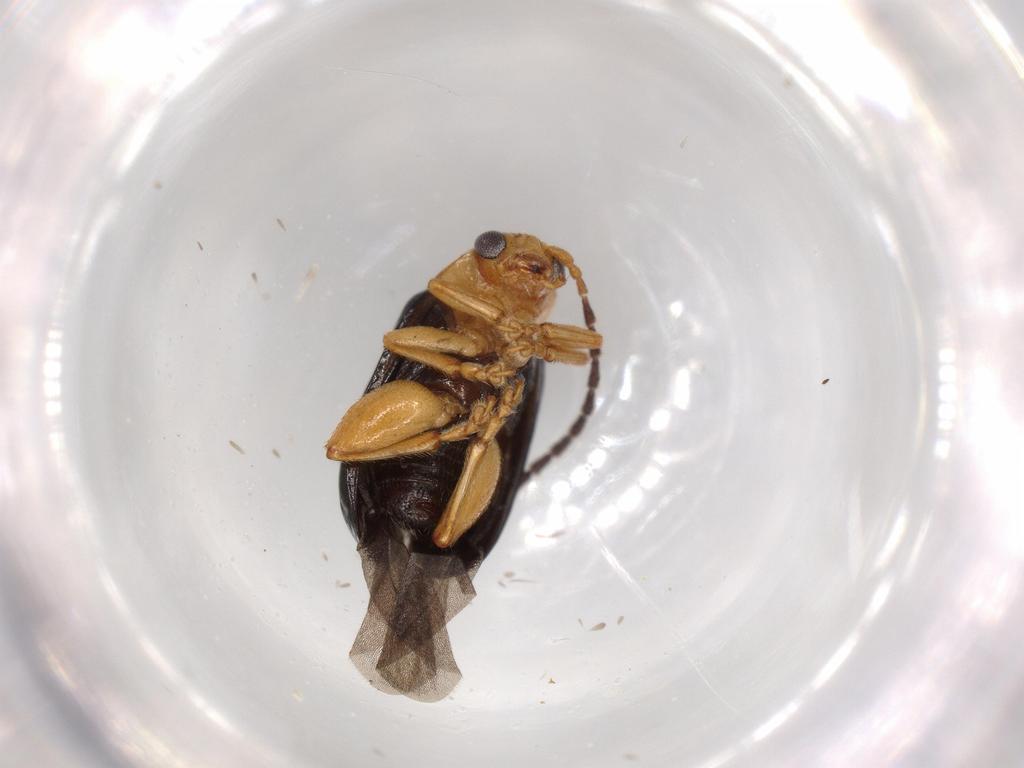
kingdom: Animalia
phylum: Arthropoda
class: Insecta
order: Coleoptera
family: Chrysomelidae
